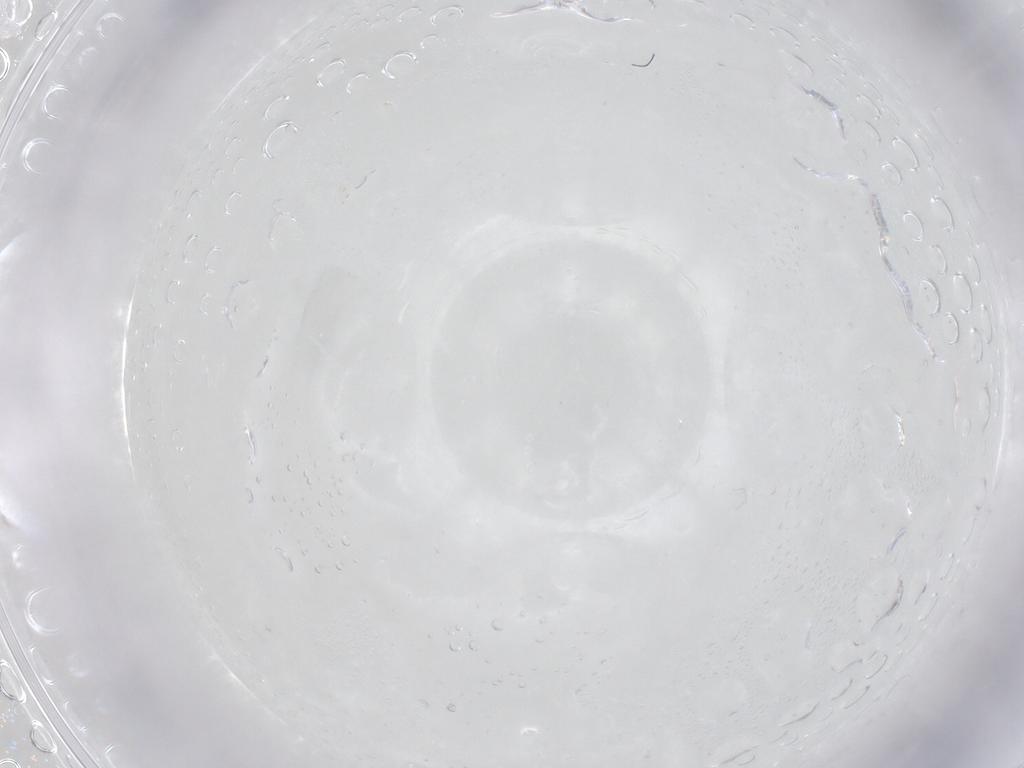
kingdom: Animalia
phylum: Arthropoda
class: Insecta
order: Diptera
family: Chironomidae
